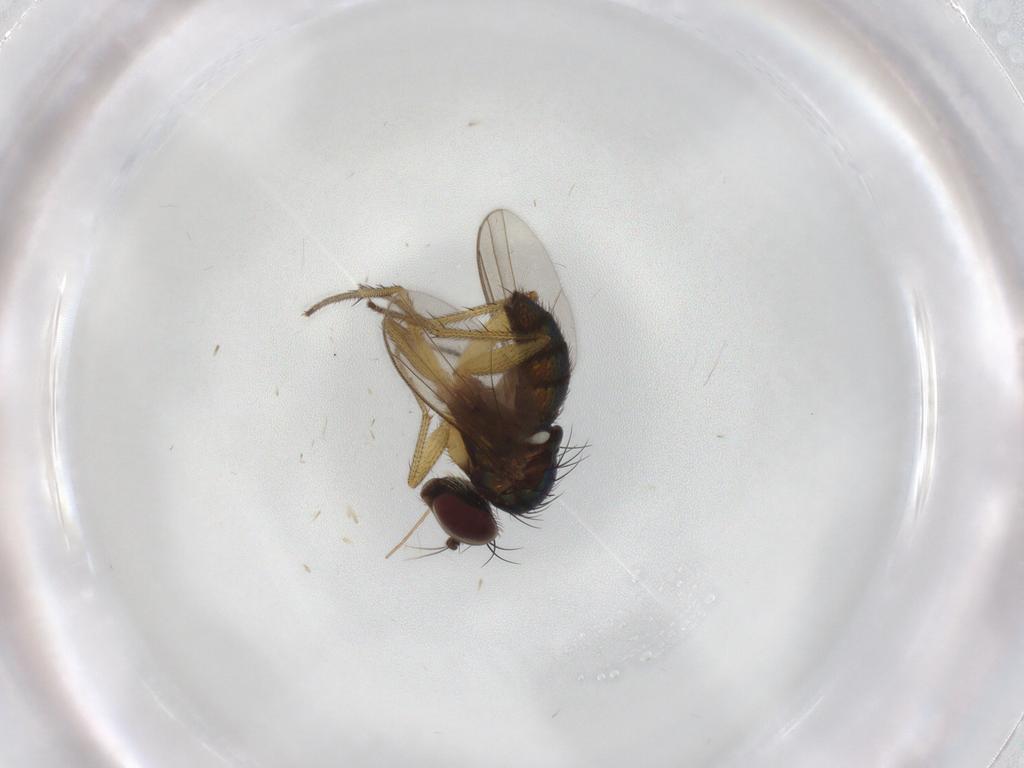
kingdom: Animalia
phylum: Arthropoda
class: Insecta
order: Diptera
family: Dolichopodidae
